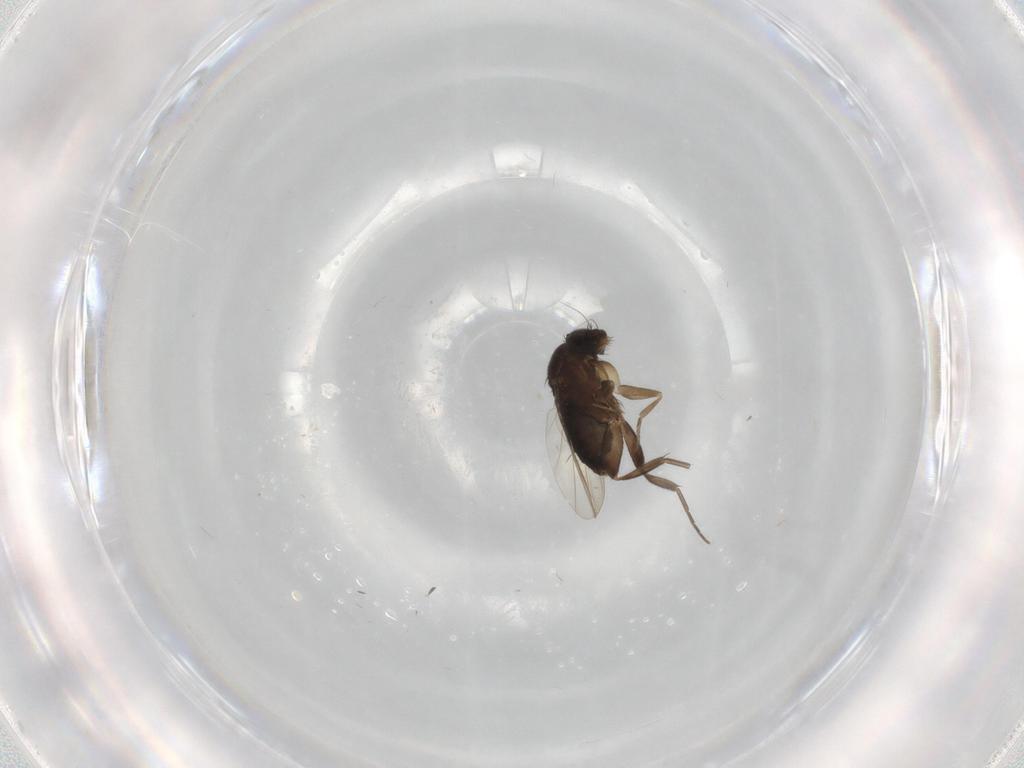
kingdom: Animalia
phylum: Arthropoda
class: Insecta
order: Diptera
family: Phoridae
